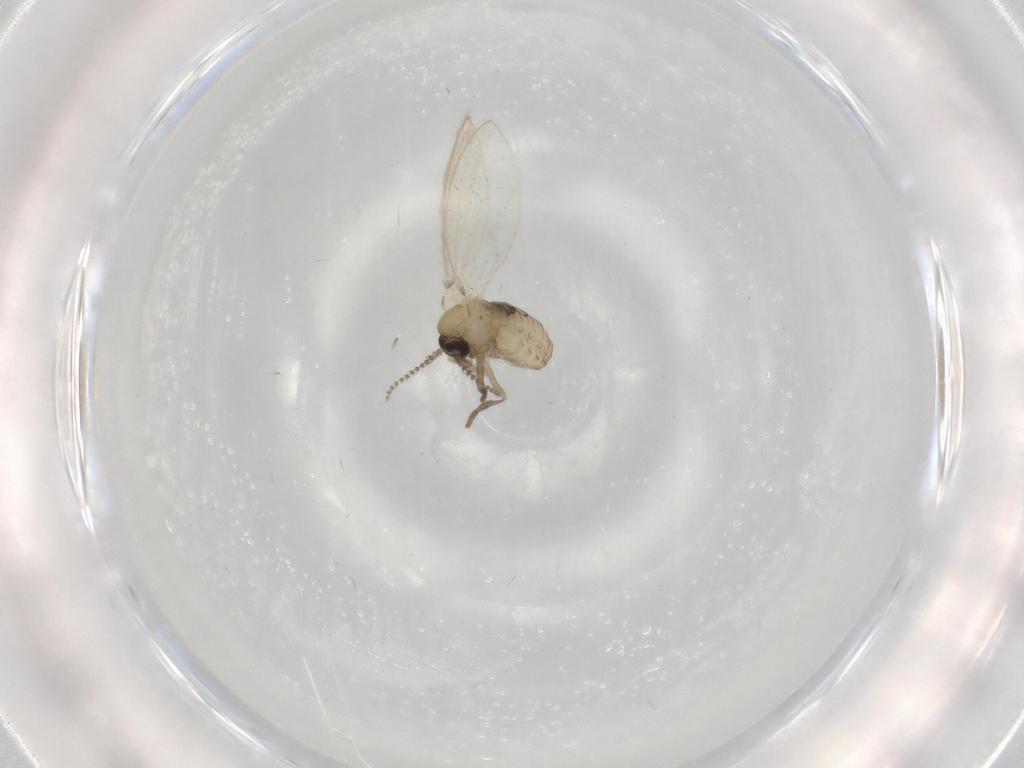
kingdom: Animalia
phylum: Arthropoda
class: Insecta
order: Diptera
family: Psychodidae
